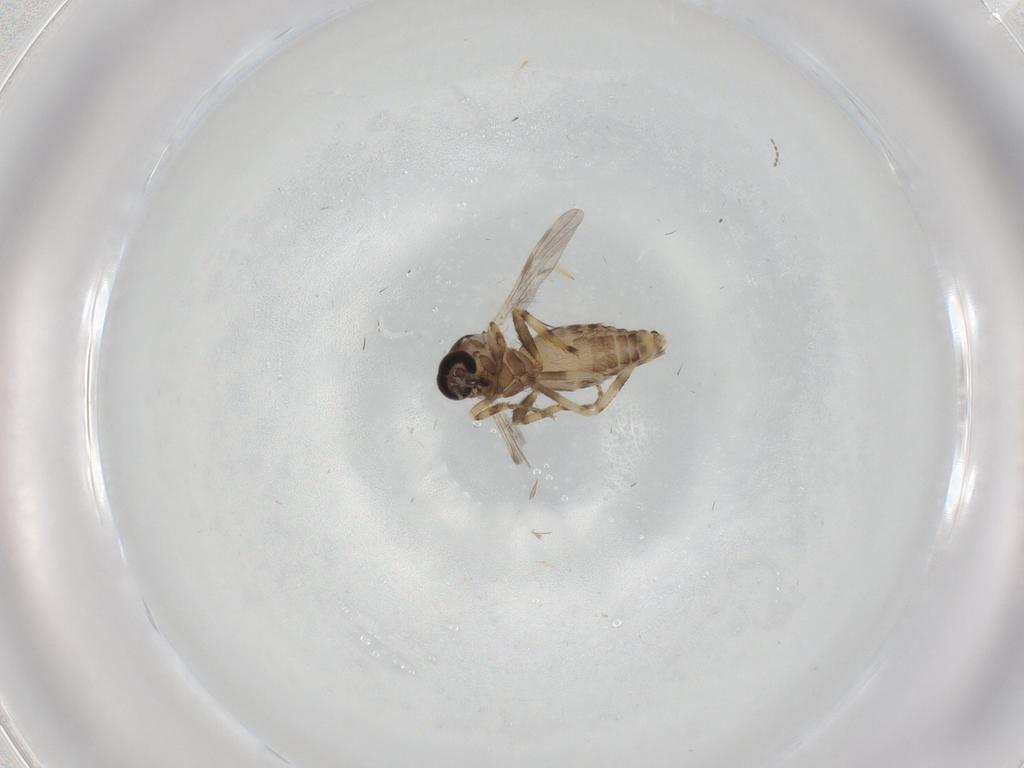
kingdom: Animalia
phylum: Arthropoda
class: Insecta
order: Diptera
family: Ceratopogonidae
